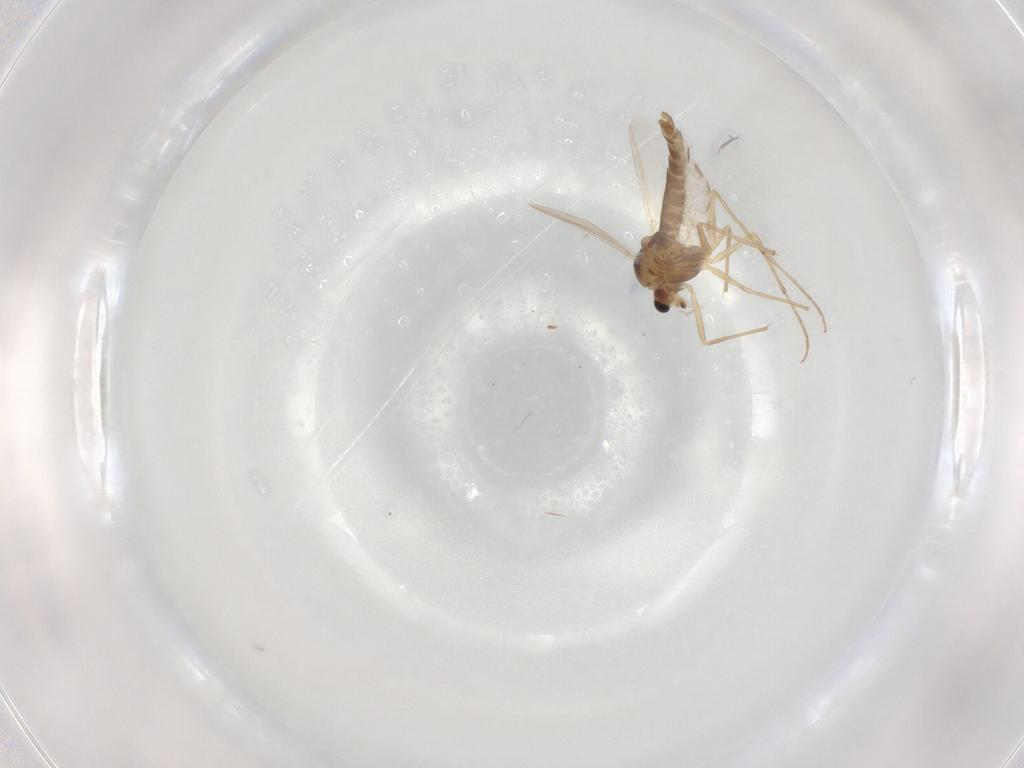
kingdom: Animalia
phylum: Arthropoda
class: Insecta
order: Diptera
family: Chironomidae
